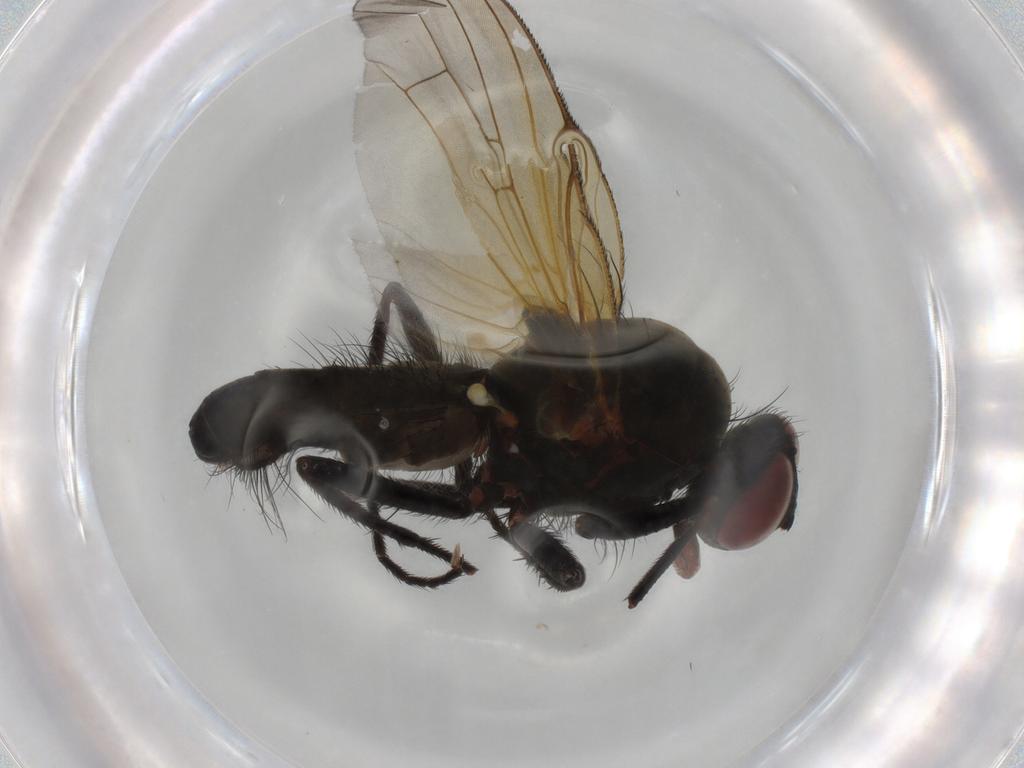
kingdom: Animalia
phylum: Arthropoda
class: Insecta
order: Diptera
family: Anthomyiidae
